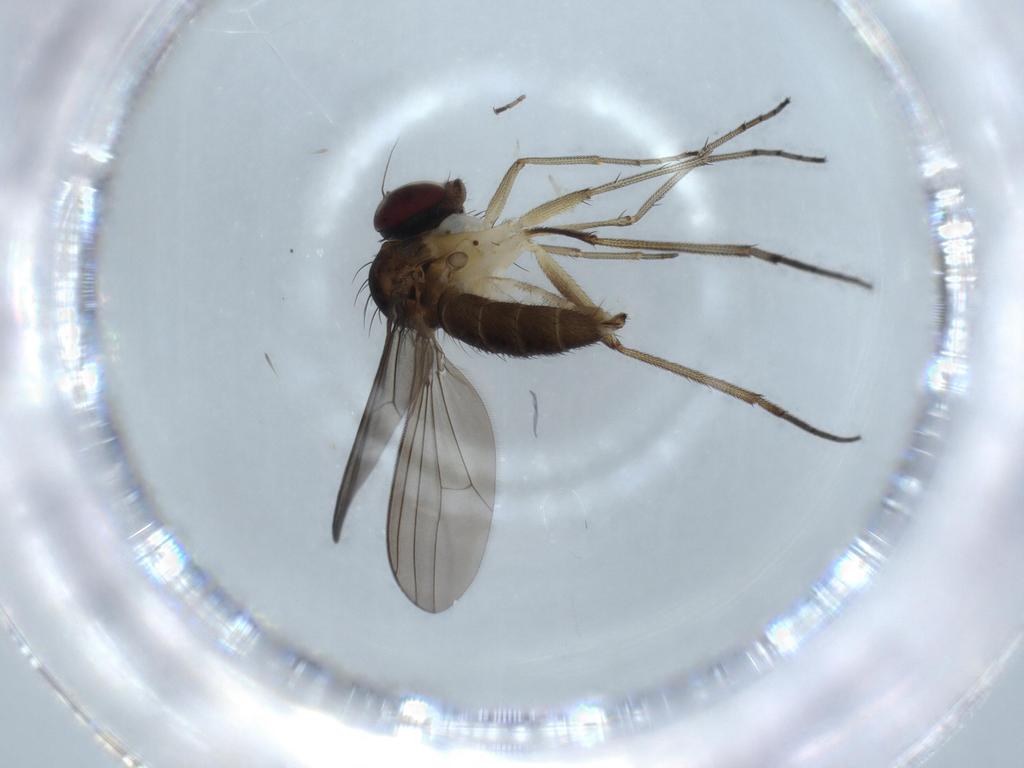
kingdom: Animalia
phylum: Arthropoda
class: Insecta
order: Diptera
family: Dolichopodidae
